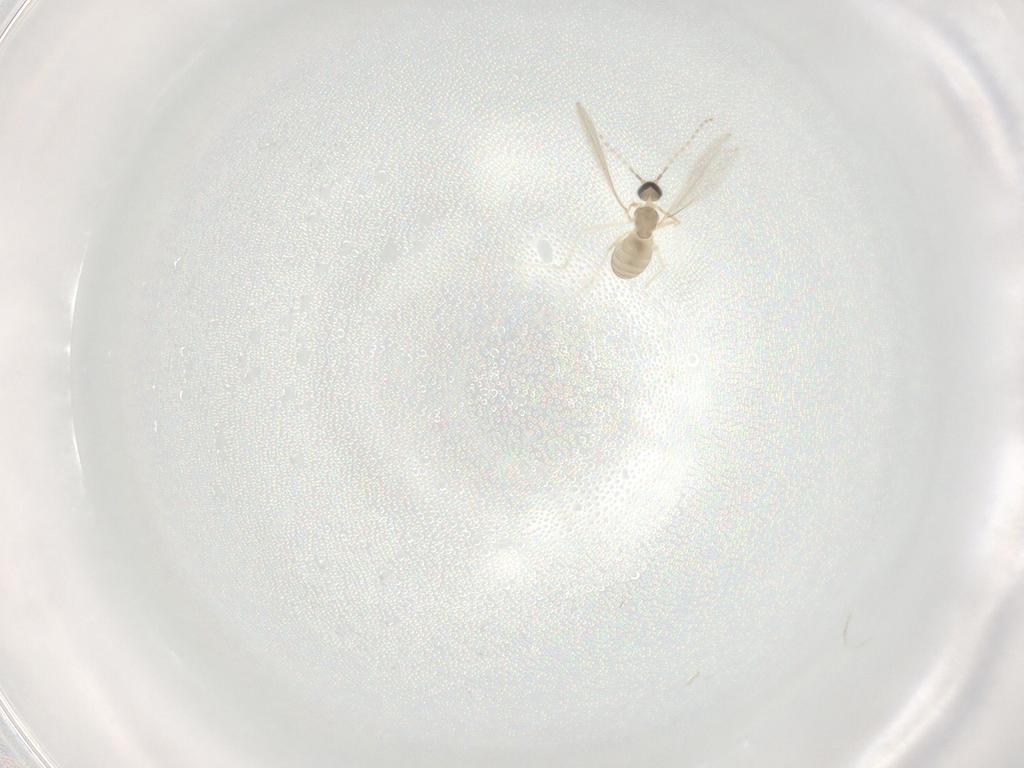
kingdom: Animalia
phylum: Arthropoda
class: Insecta
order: Diptera
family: Cecidomyiidae
